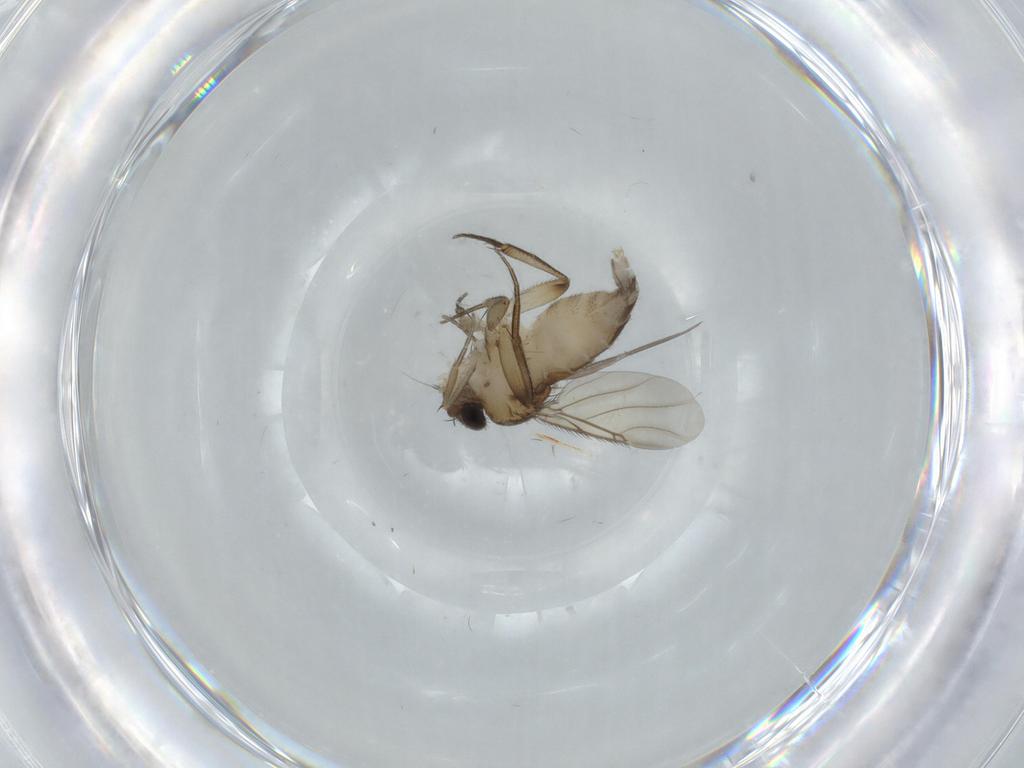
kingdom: Animalia
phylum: Arthropoda
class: Insecta
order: Diptera
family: Phoridae
